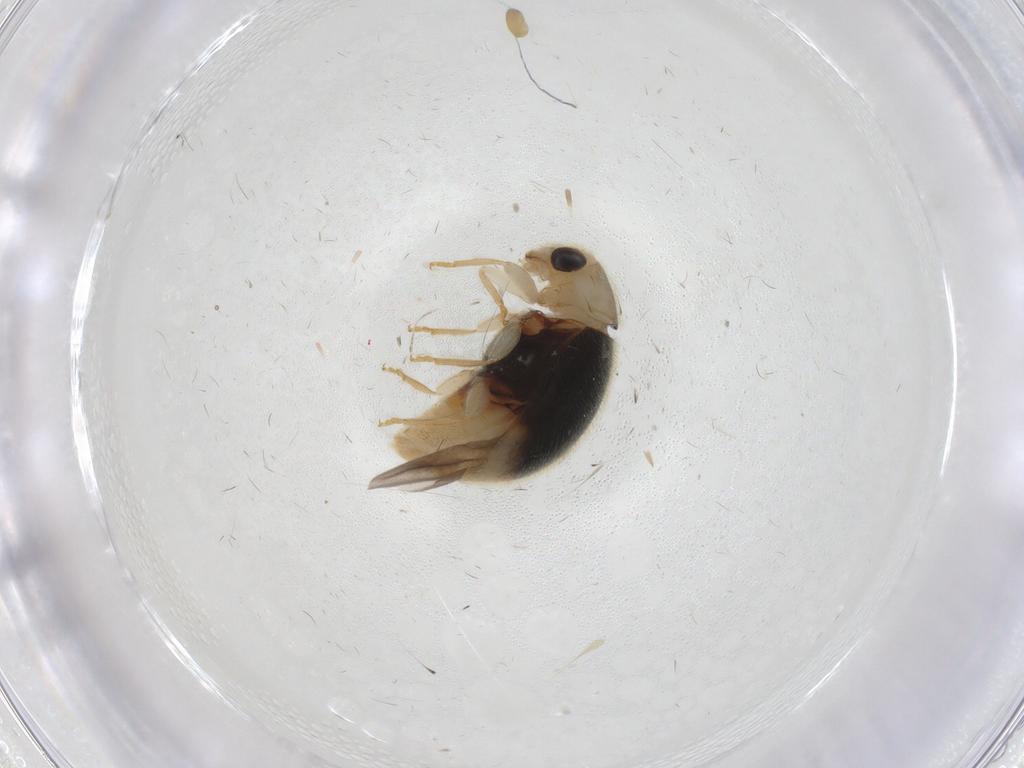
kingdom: Animalia
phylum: Arthropoda
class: Insecta
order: Coleoptera
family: Coccinellidae
